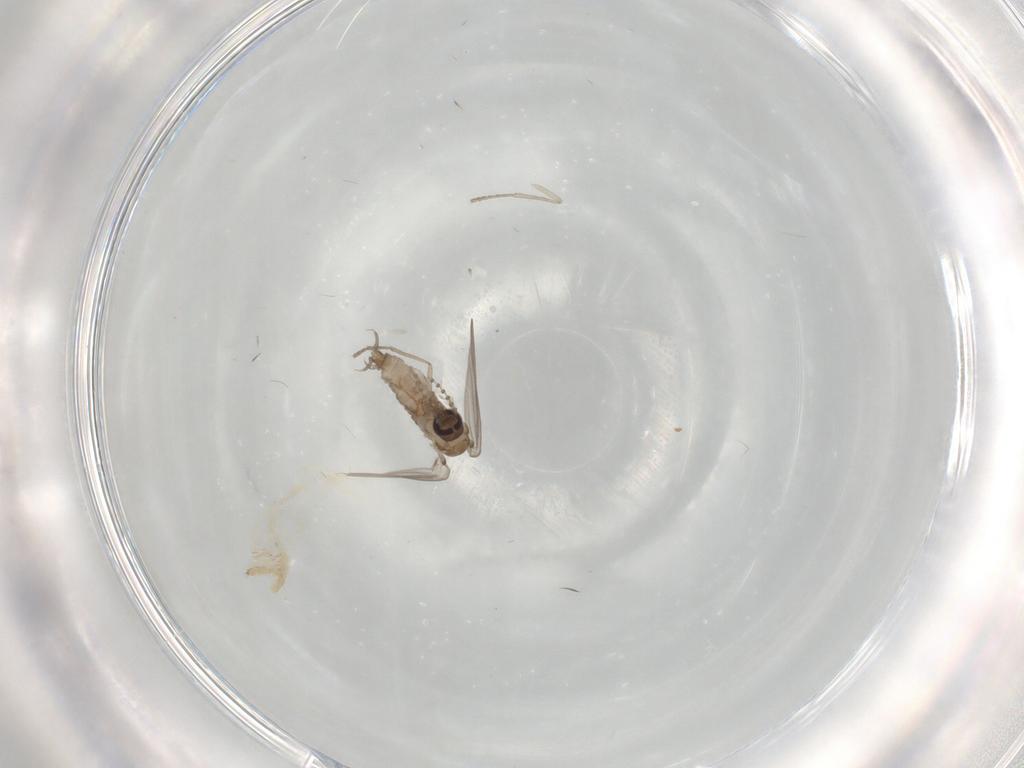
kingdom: Animalia
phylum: Arthropoda
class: Insecta
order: Diptera
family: Psychodidae
